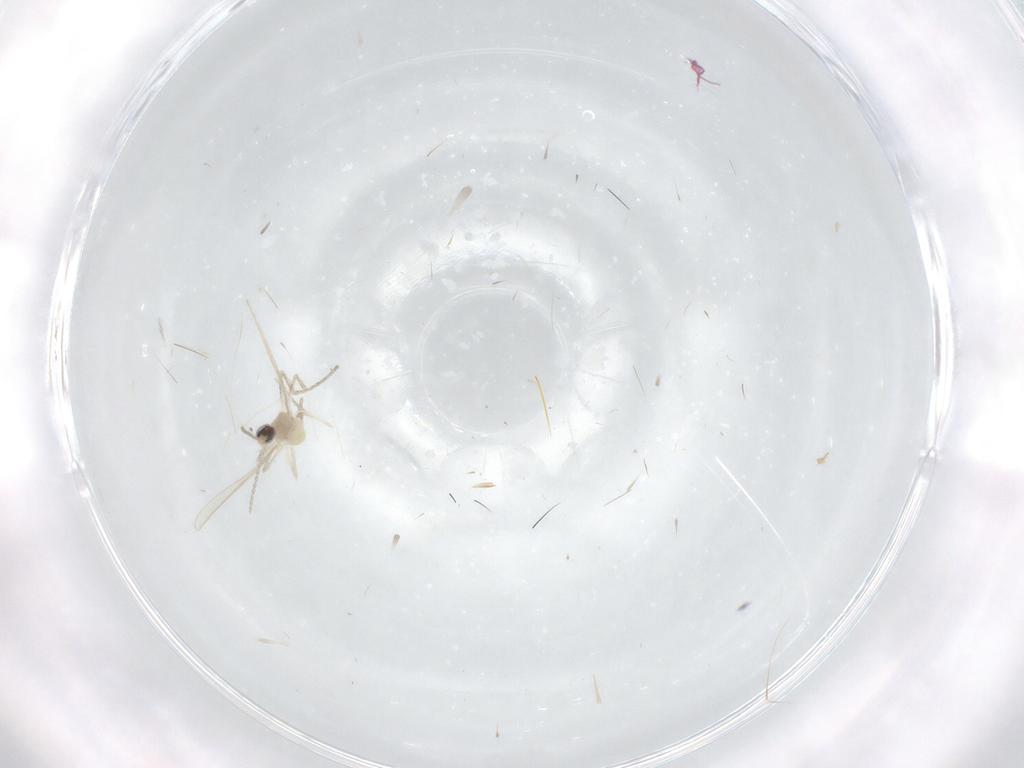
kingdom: Animalia
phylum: Arthropoda
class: Insecta
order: Diptera
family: Cecidomyiidae
